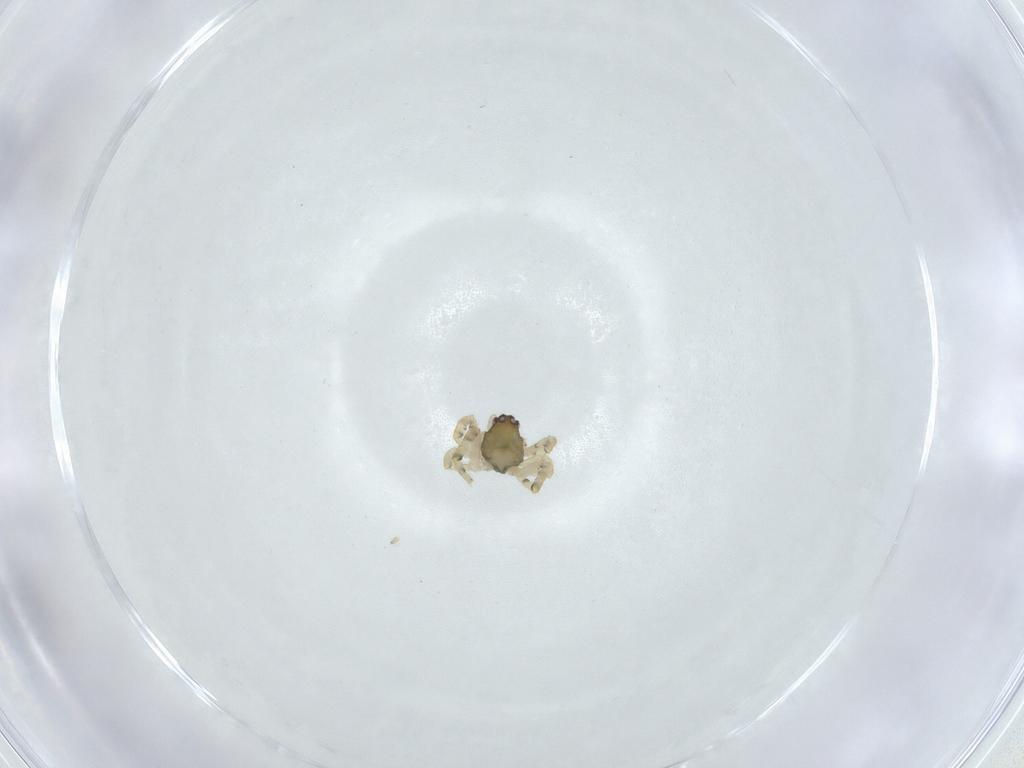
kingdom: Animalia
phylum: Arthropoda
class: Arachnida
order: Araneae
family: Theridiidae
